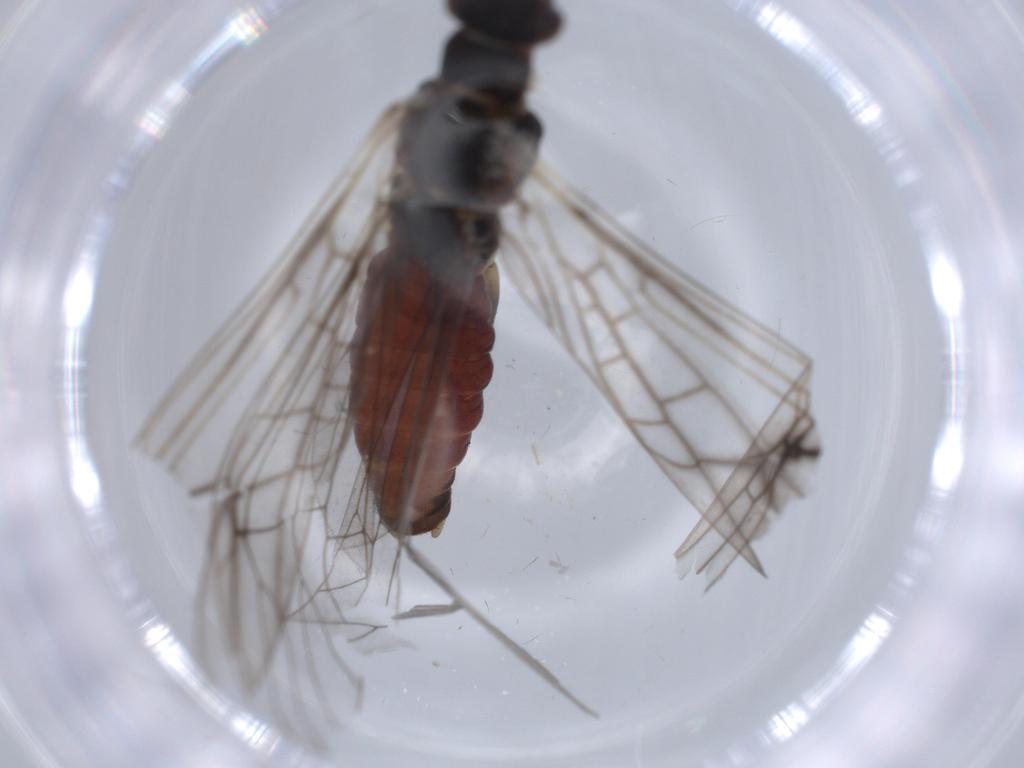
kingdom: Animalia
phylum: Arthropoda
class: Insecta
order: Plecoptera
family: Nemouridae
